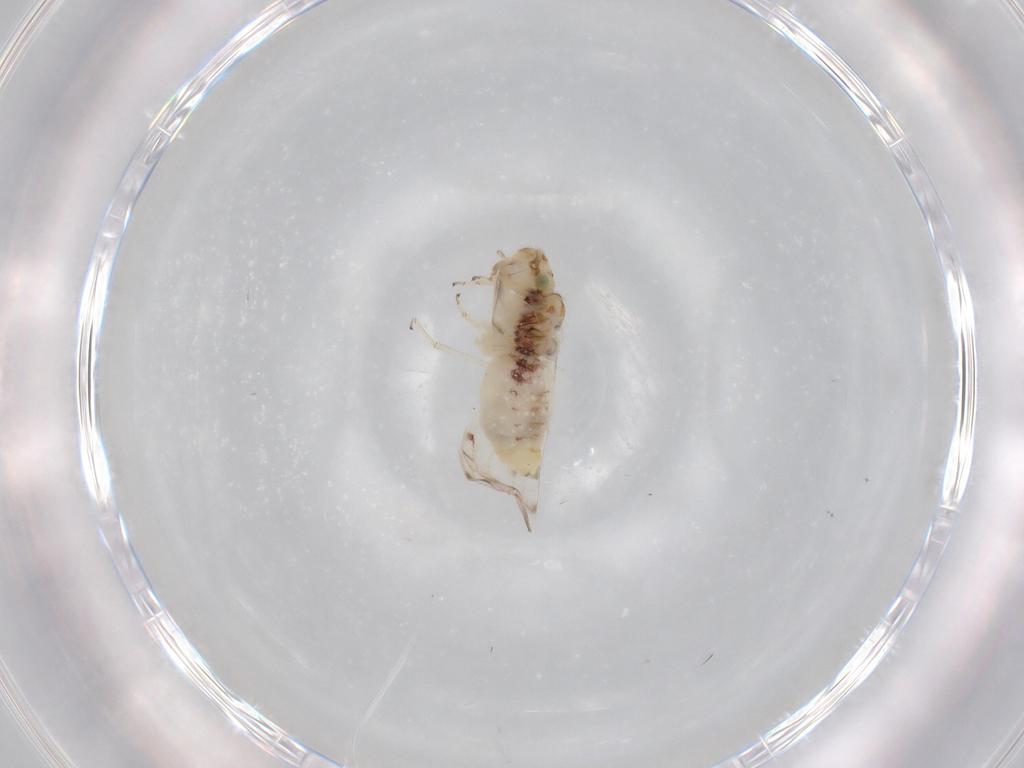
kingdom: Animalia
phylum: Arthropoda
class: Insecta
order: Psocodea
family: Ectopsocidae
